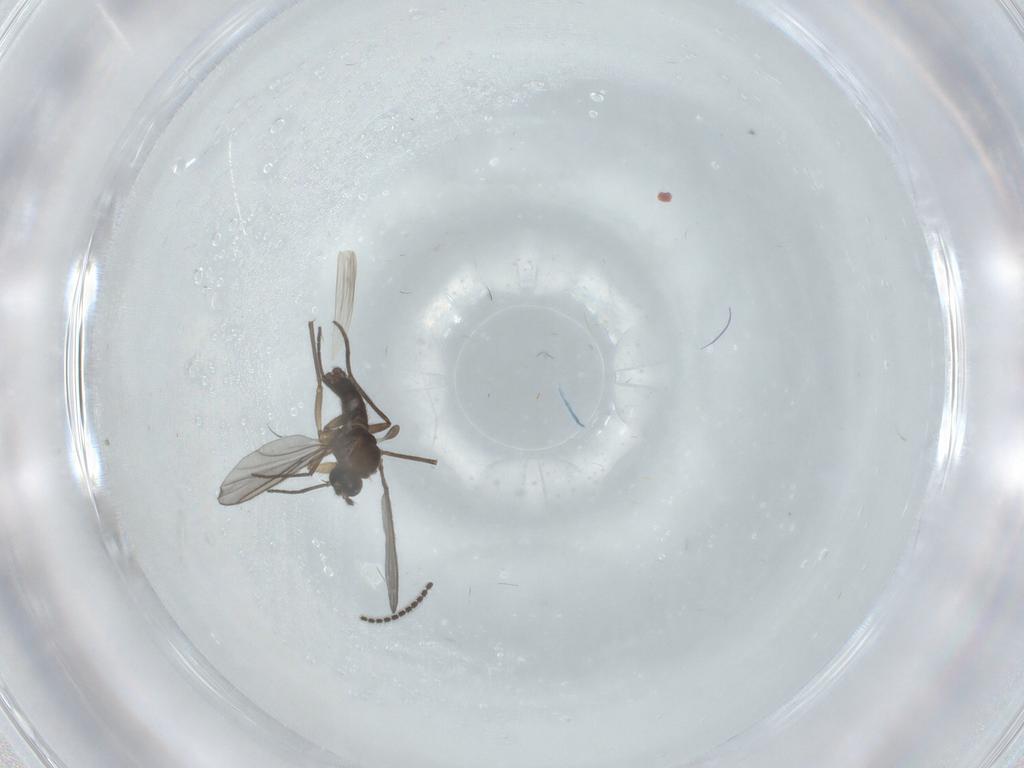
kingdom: Animalia
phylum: Arthropoda
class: Insecta
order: Diptera
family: Sciaridae
